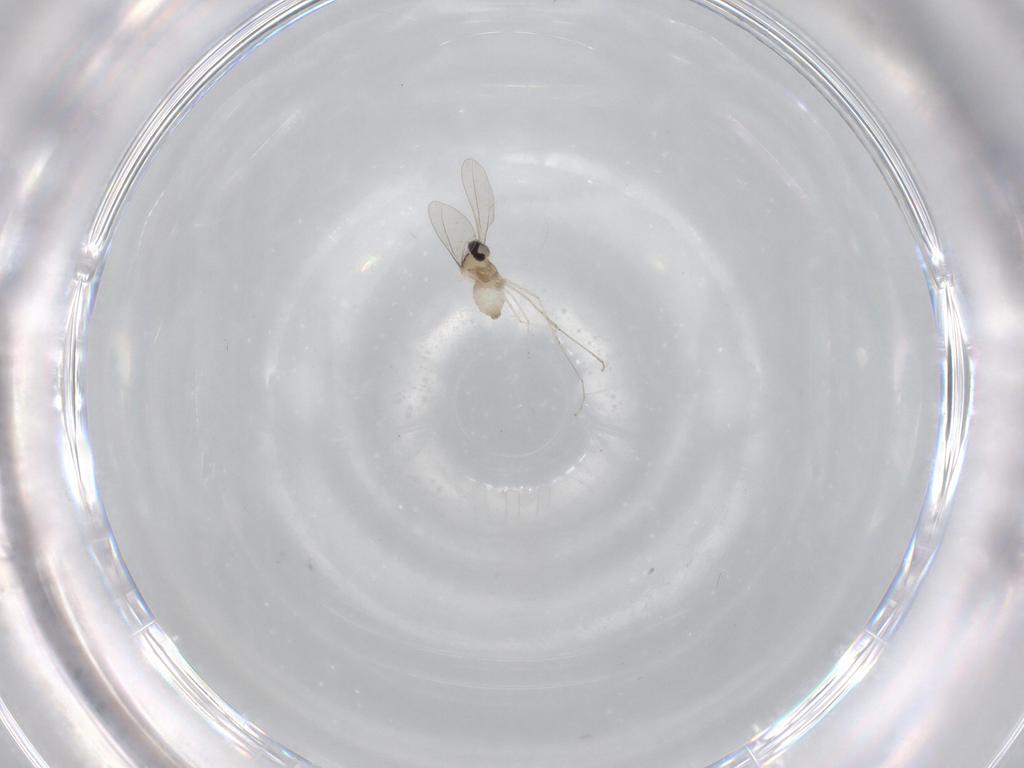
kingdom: Animalia
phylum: Arthropoda
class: Insecta
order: Diptera
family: Cecidomyiidae
